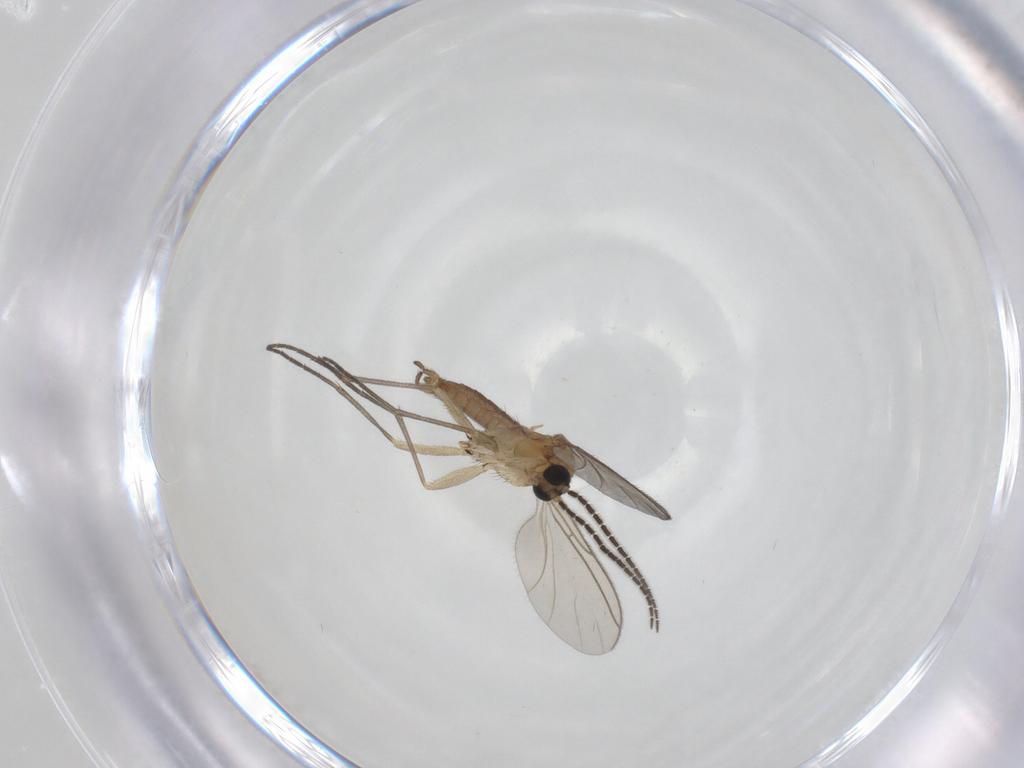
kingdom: Animalia
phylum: Arthropoda
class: Insecta
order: Diptera
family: Sciaridae
